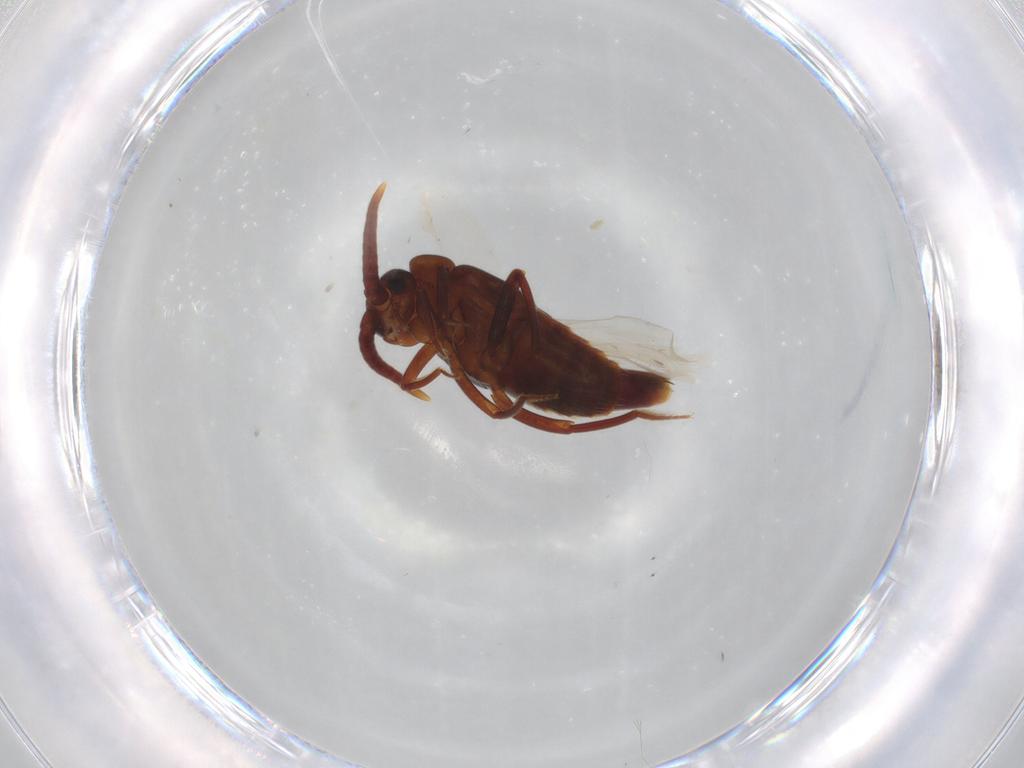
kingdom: Animalia
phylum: Arthropoda
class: Insecta
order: Coleoptera
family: Staphylinidae
